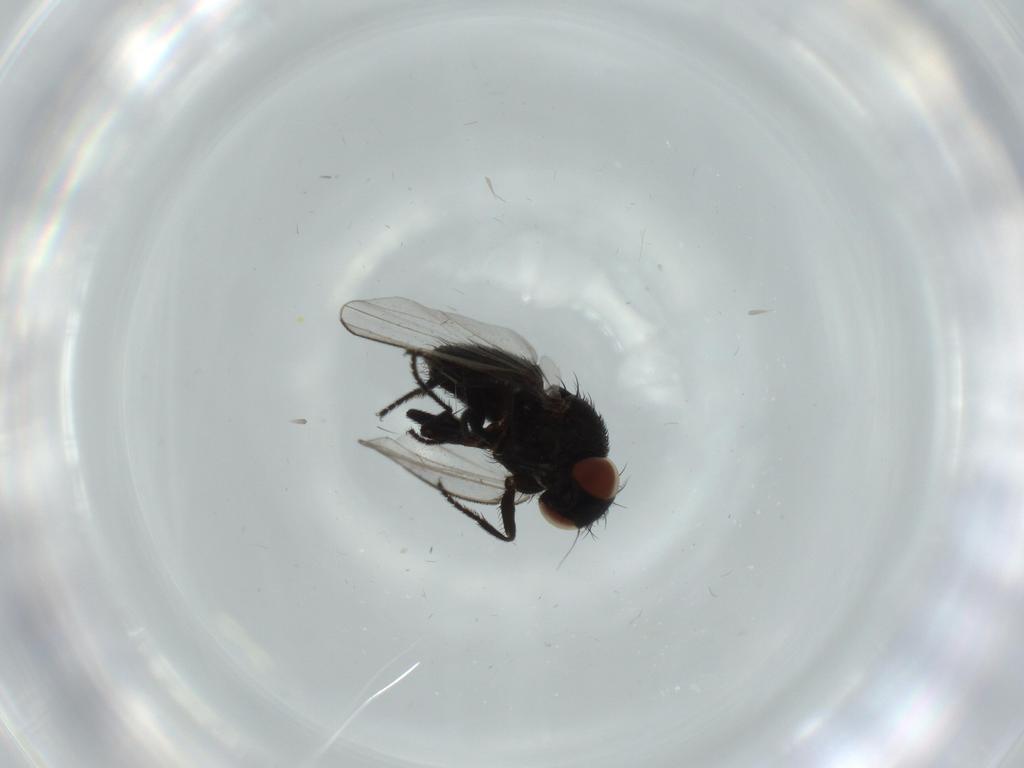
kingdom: Animalia
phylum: Arthropoda
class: Insecta
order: Diptera
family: Milichiidae
